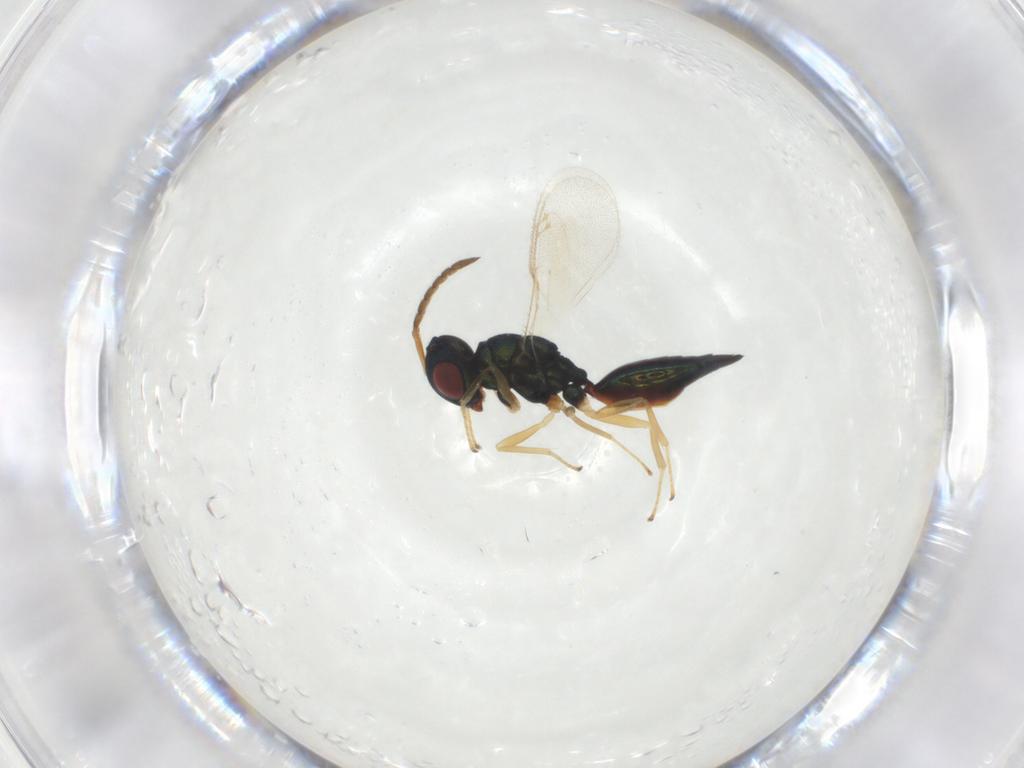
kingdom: Animalia
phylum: Arthropoda
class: Insecta
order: Hymenoptera
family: Pteromalidae
